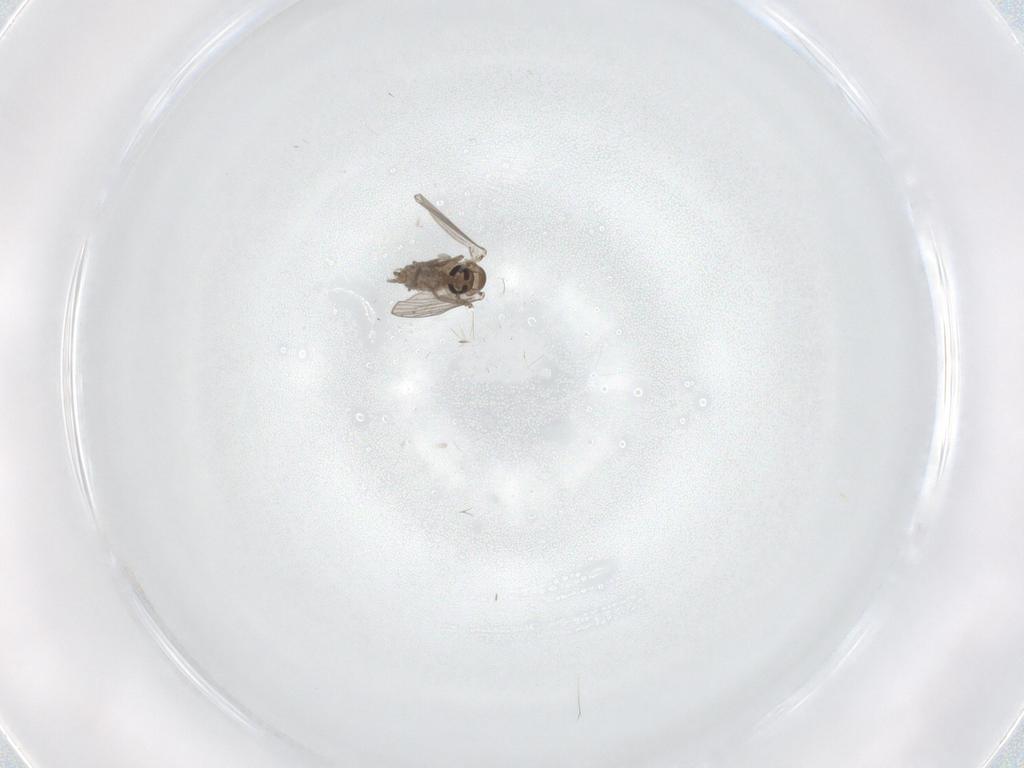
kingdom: Animalia
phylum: Arthropoda
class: Insecta
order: Diptera
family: Psychodidae
